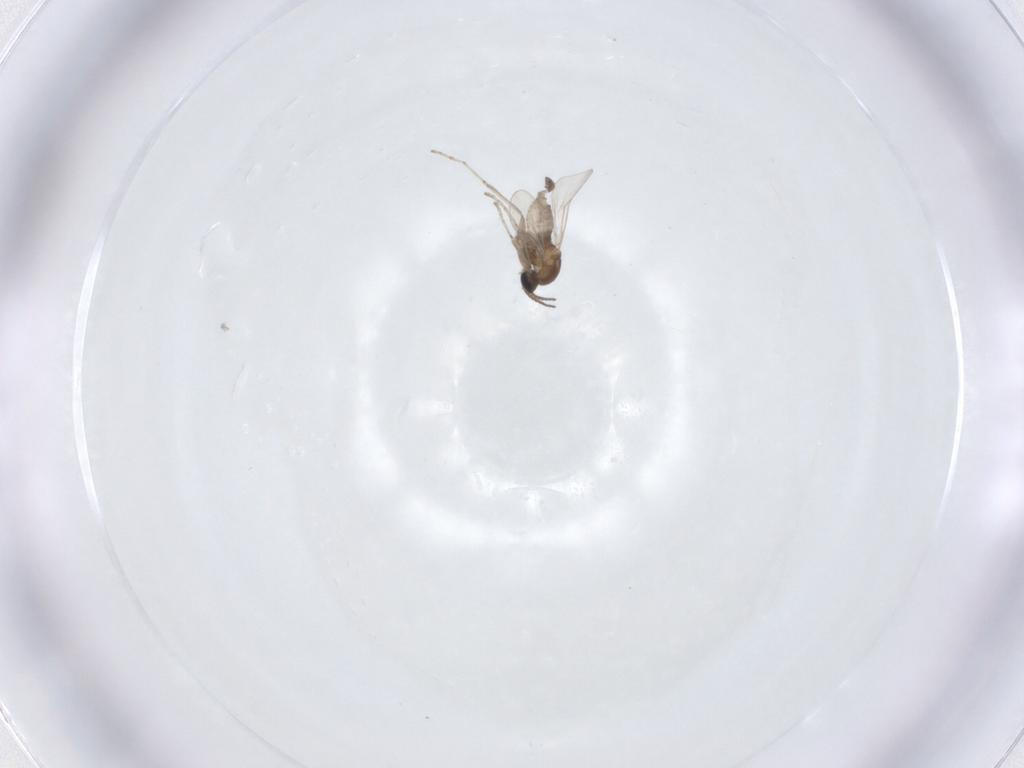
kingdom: Animalia
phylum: Arthropoda
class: Insecta
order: Diptera
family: Cecidomyiidae
